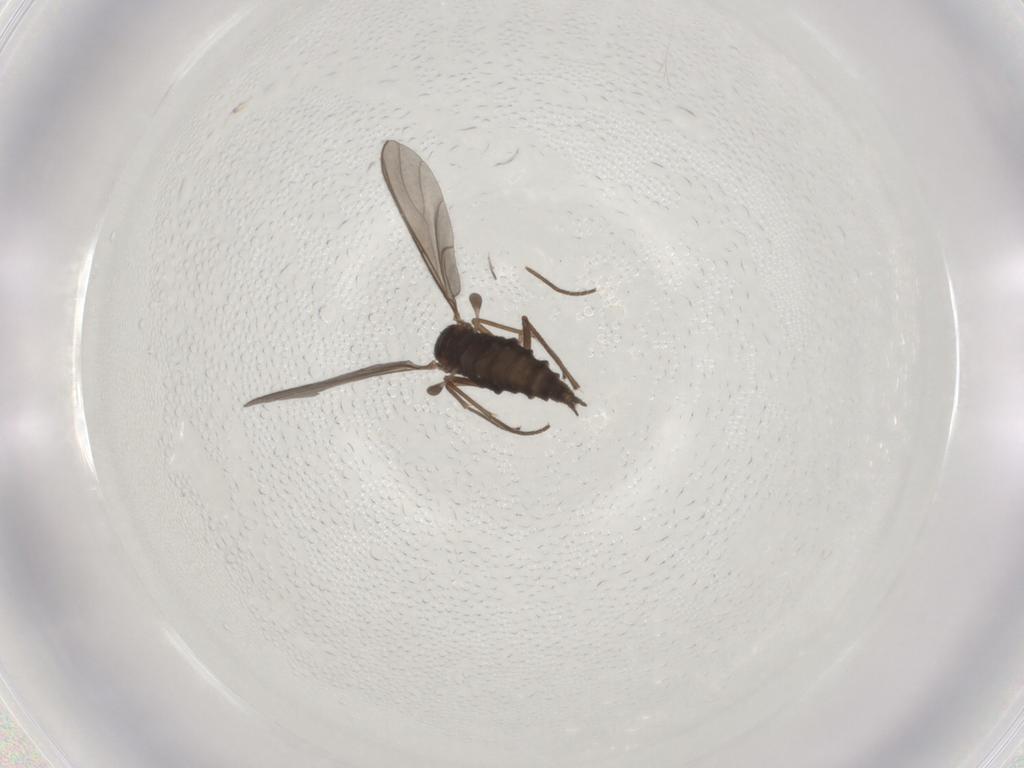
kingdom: Animalia
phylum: Arthropoda
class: Insecta
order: Diptera
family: Sciaridae
